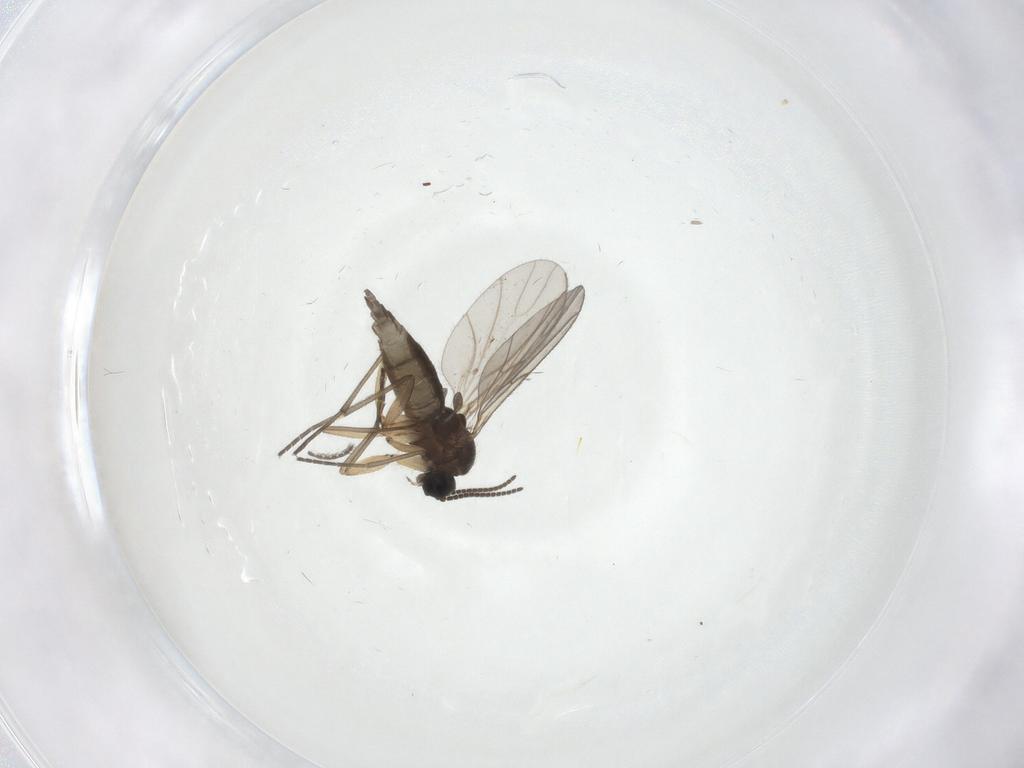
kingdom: Animalia
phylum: Arthropoda
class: Insecta
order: Diptera
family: Sciaridae
